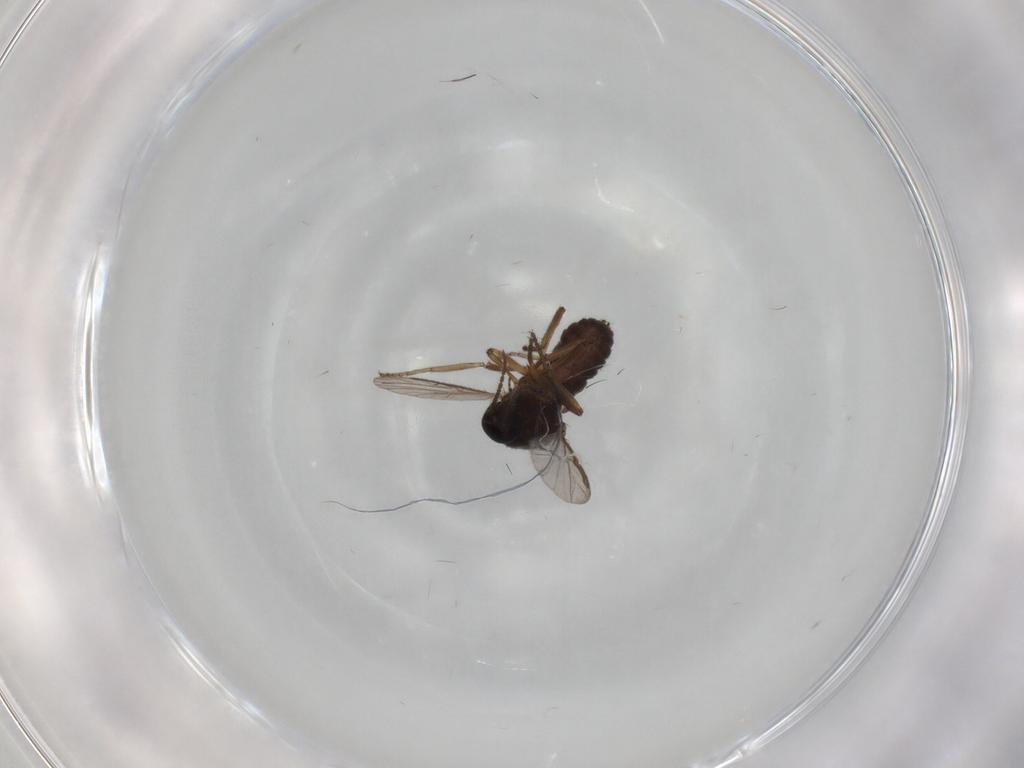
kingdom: Animalia
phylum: Arthropoda
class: Insecta
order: Diptera
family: Ceratopogonidae
